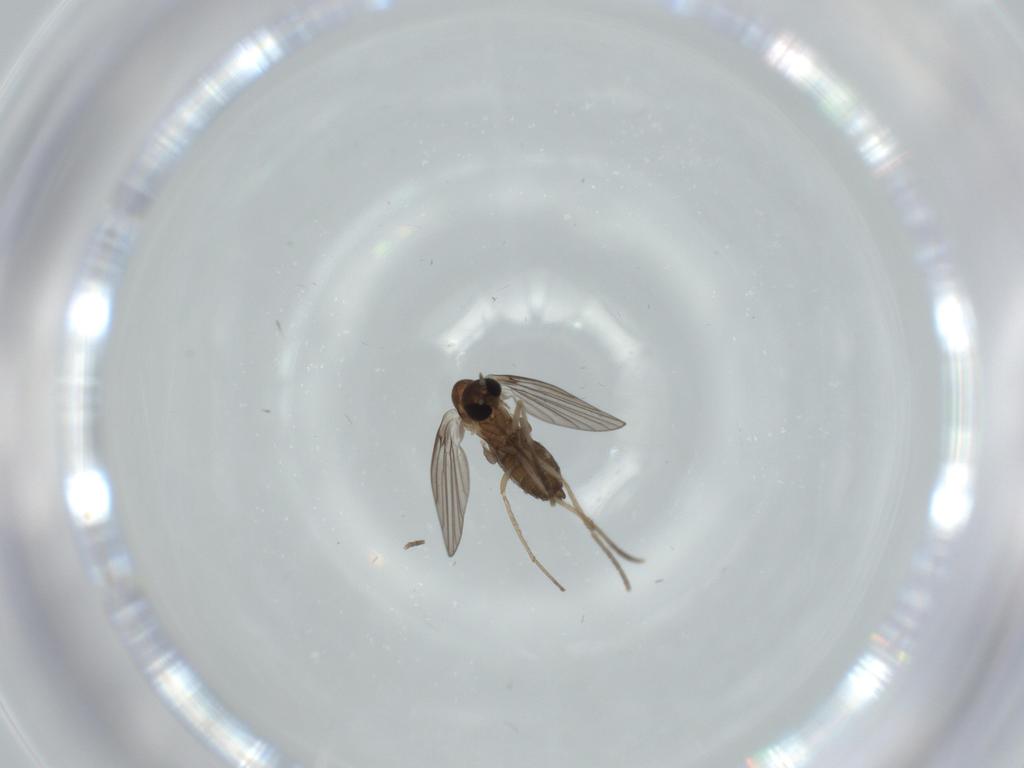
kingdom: Animalia
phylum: Arthropoda
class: Insecta
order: Diptera
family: Psychodidae
